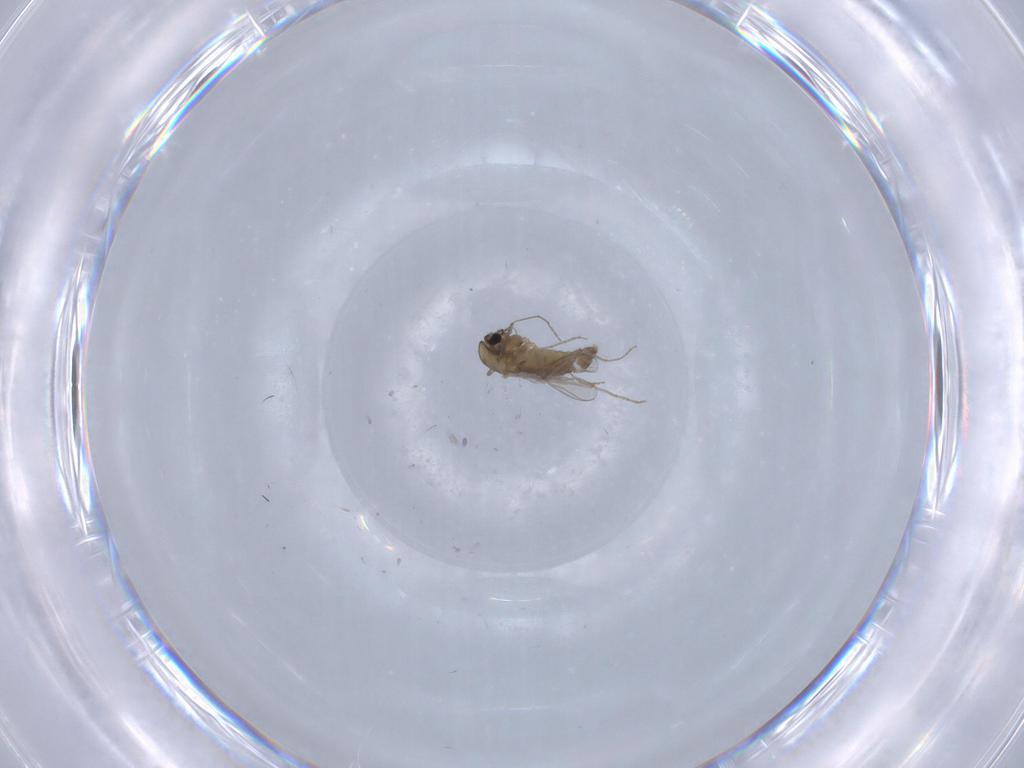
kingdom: Animalia
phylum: Arthropoda
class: Insecta
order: Diptera
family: Chironomidae
